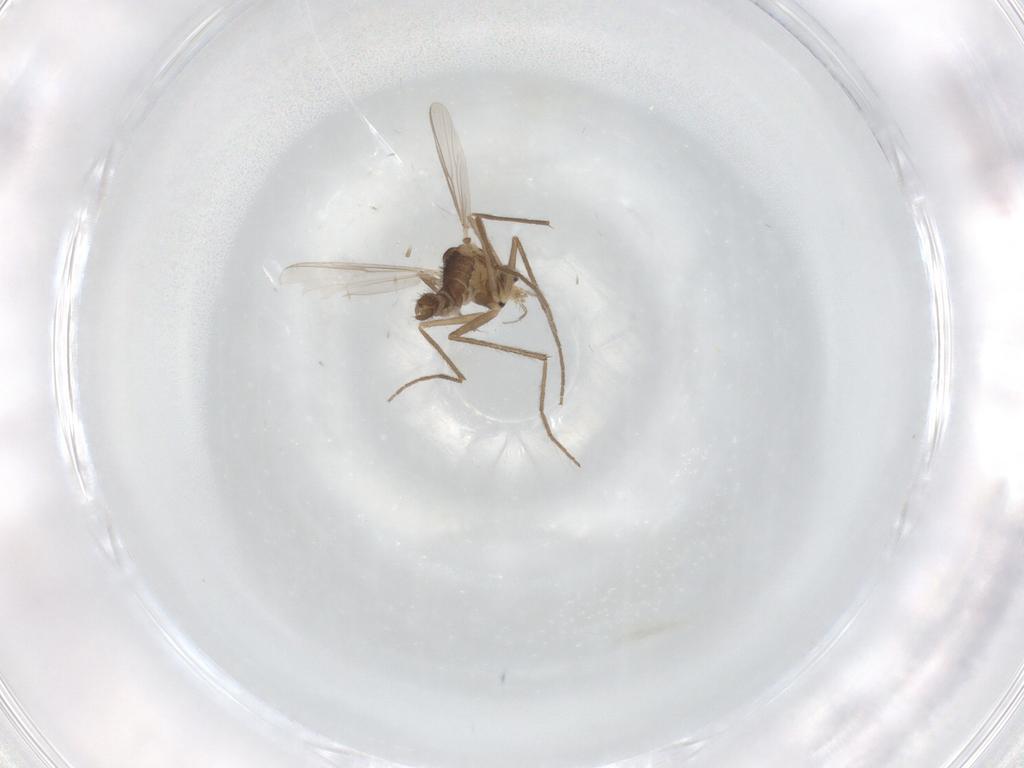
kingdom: Animalia
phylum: Arthropoda
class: Insecta
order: Diptera
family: Chironomidae
